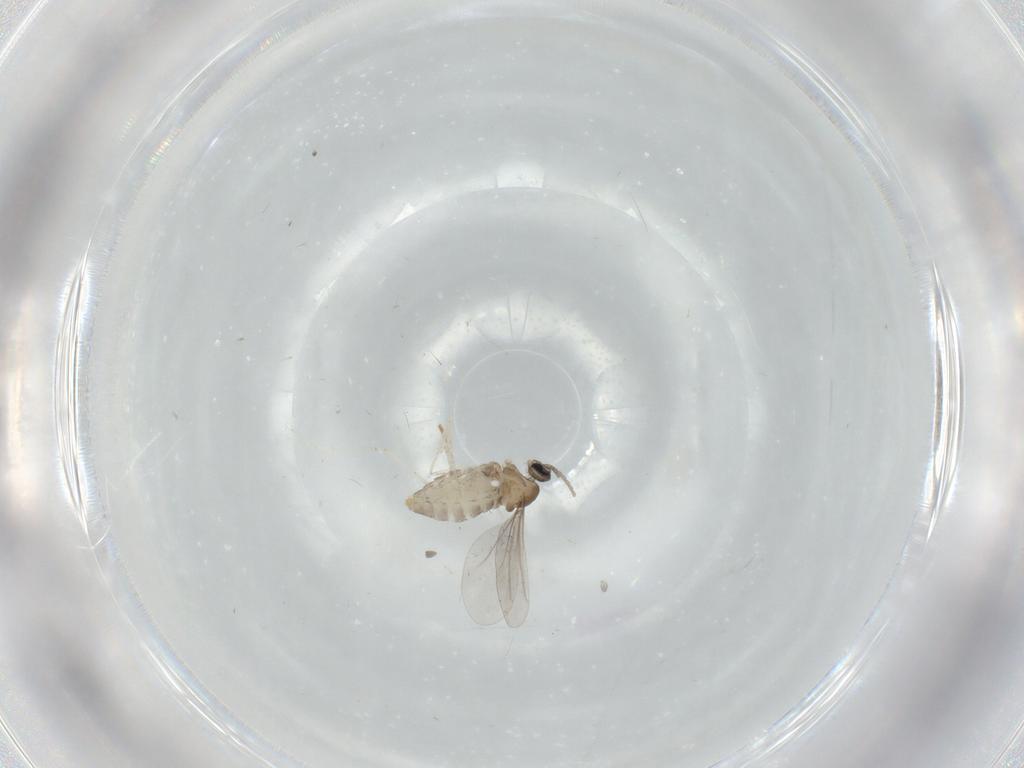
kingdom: Animalia
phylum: Arthropoda
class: Insecta
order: Diptera
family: Cecidomyiidae
